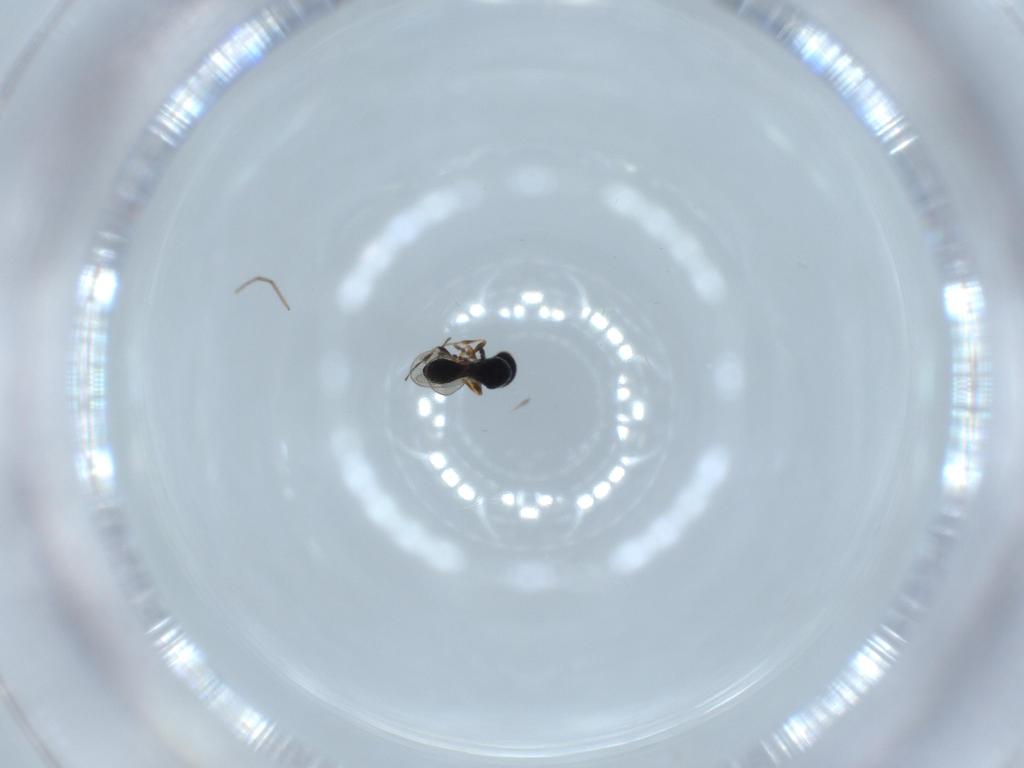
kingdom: Animalia
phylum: Arthropoda
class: Insecta
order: Hymenoptera
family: Platygastridae
